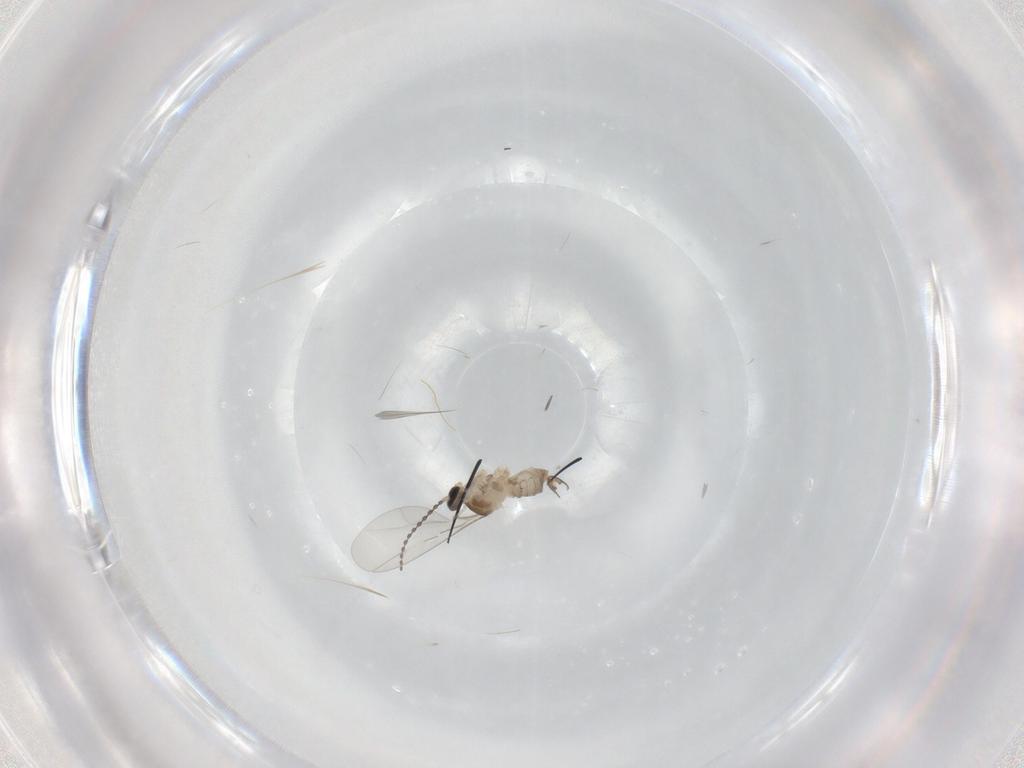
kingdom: Animalia
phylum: Arthropoda
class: Insecta
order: Diptera
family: Cecidomyiidae
